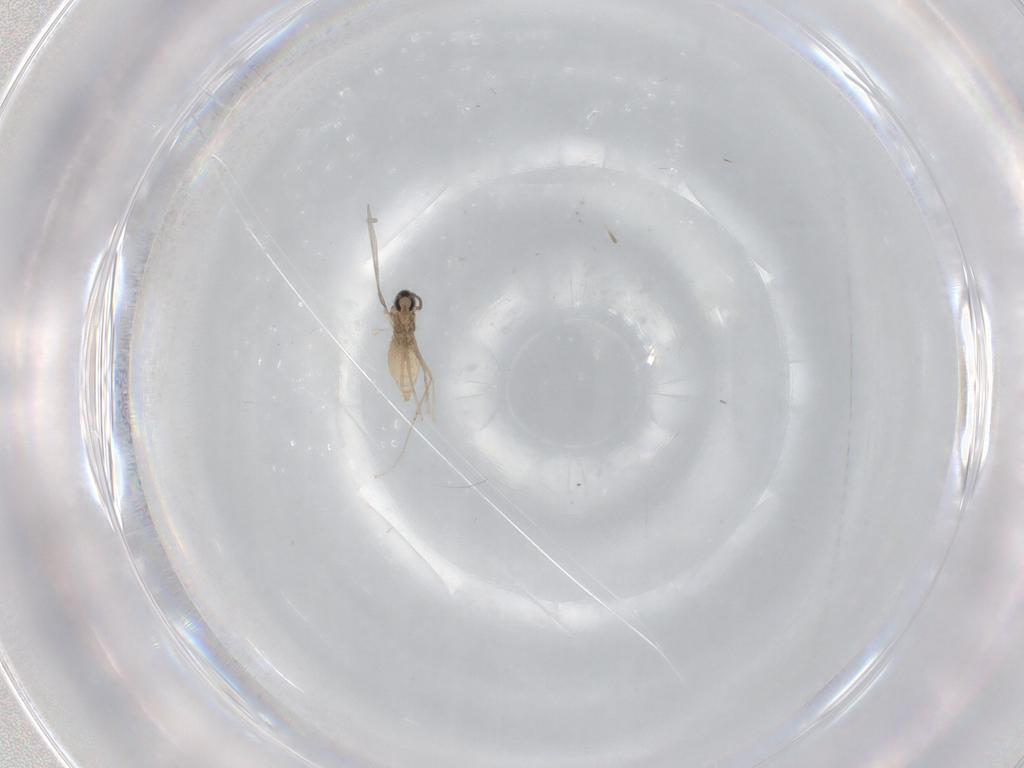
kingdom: Animalia
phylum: Arthropoda
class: Insecta
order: Diptera
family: Cecidomyiidae
